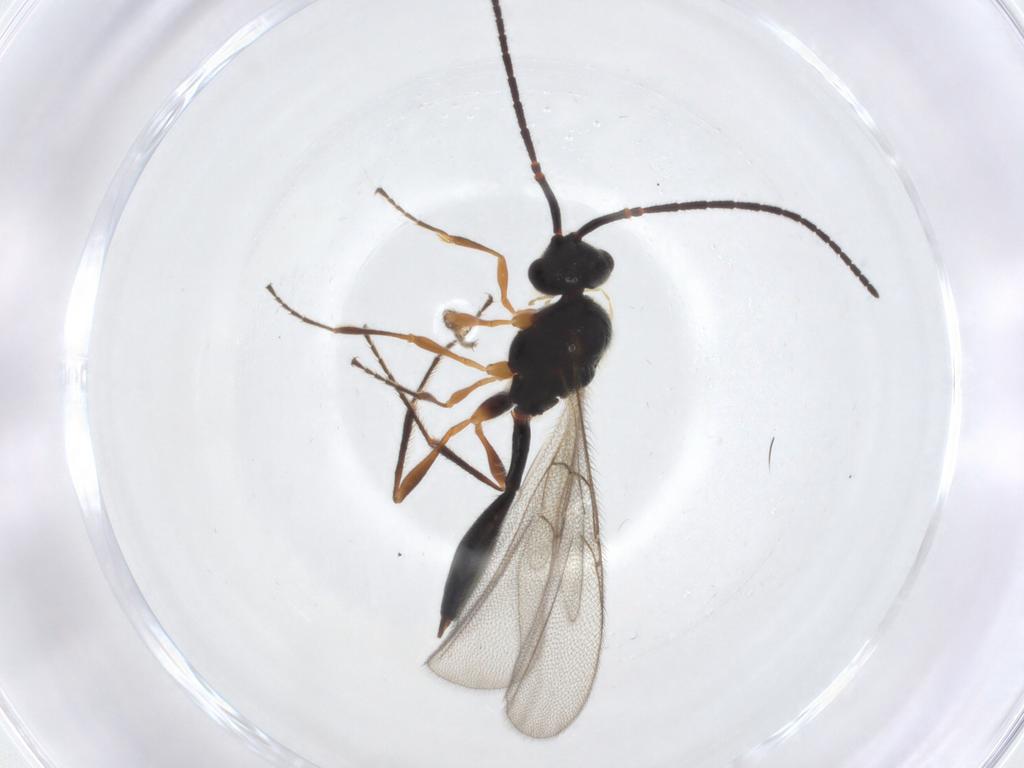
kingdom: Animalia
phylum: Arthropoda
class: Insecta
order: Hymenoptera
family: Diapriidae
